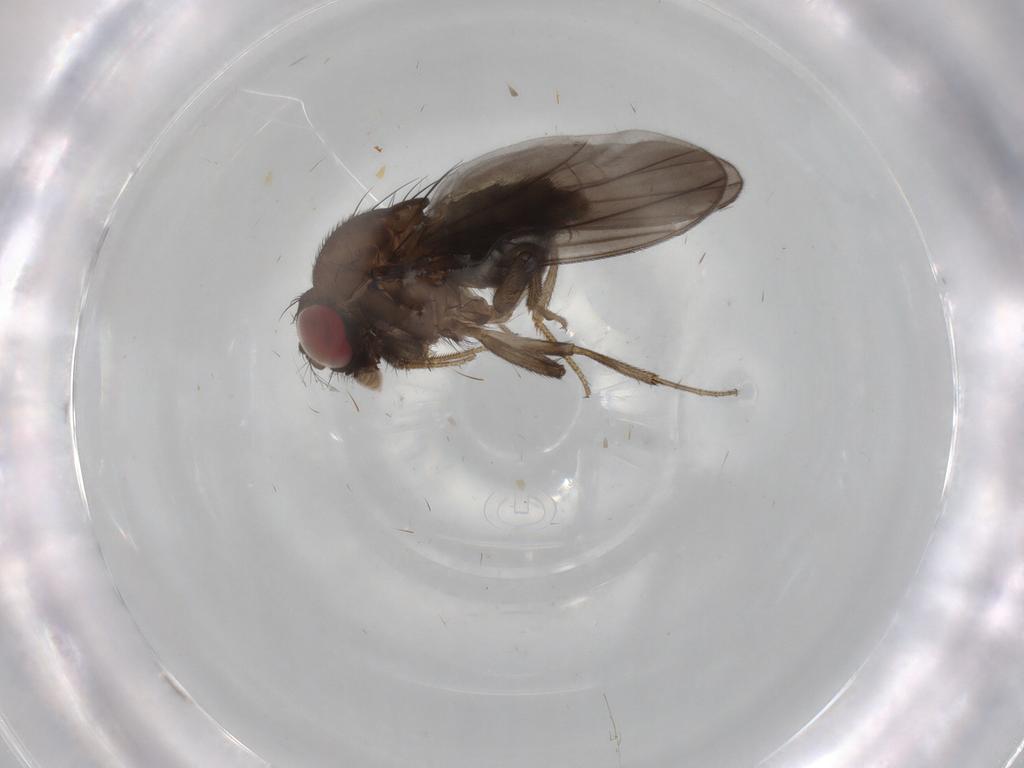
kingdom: Animalia
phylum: Arthropoda
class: Insecta
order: Diptera
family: Drosophilidae
